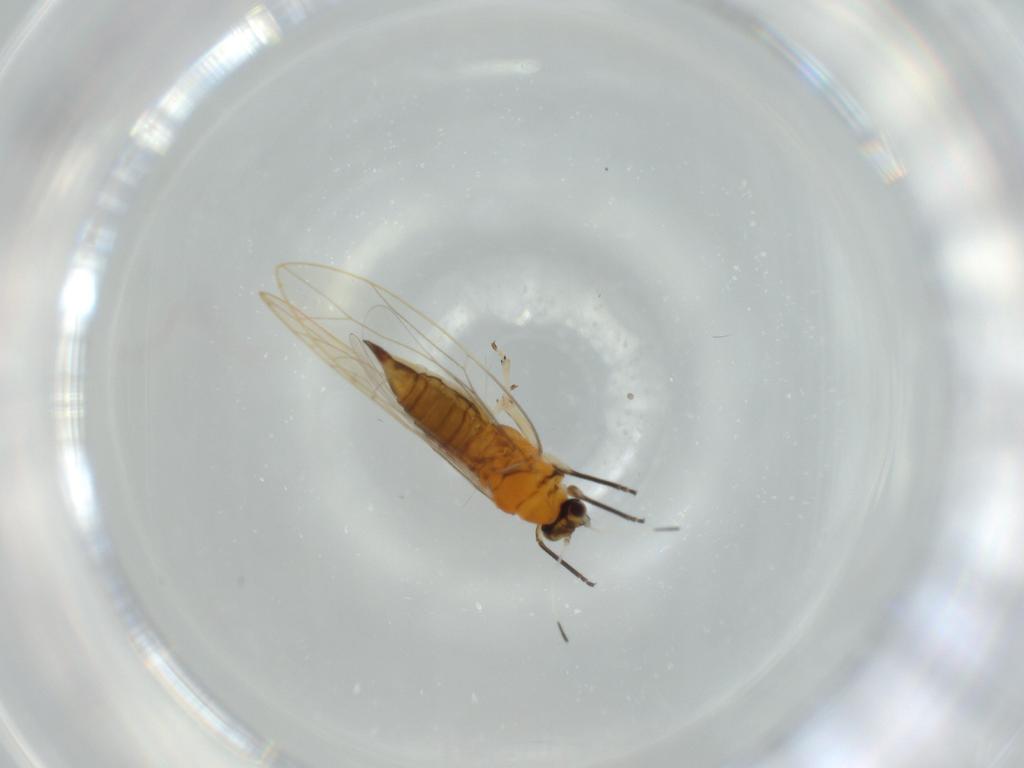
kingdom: Animalia
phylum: Arthropoda
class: Insecta
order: Hemiptera
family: Triozidae
